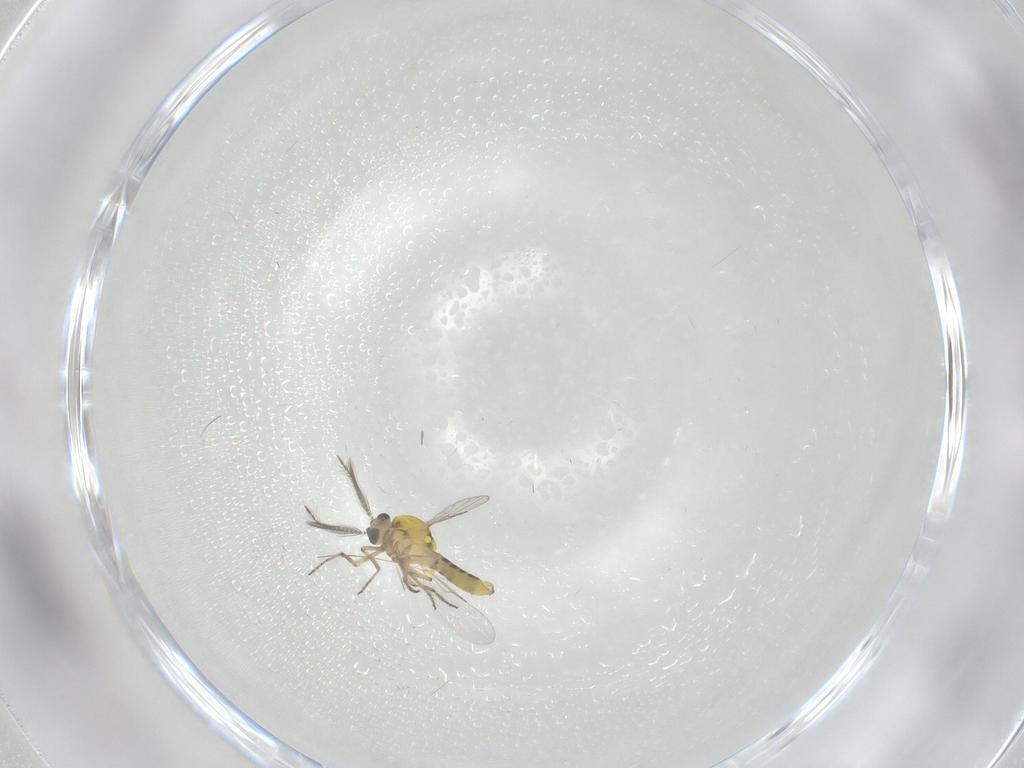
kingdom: Animalia
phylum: Arthropoda
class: Insecta
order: Diptera
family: Ceratopogonidae
